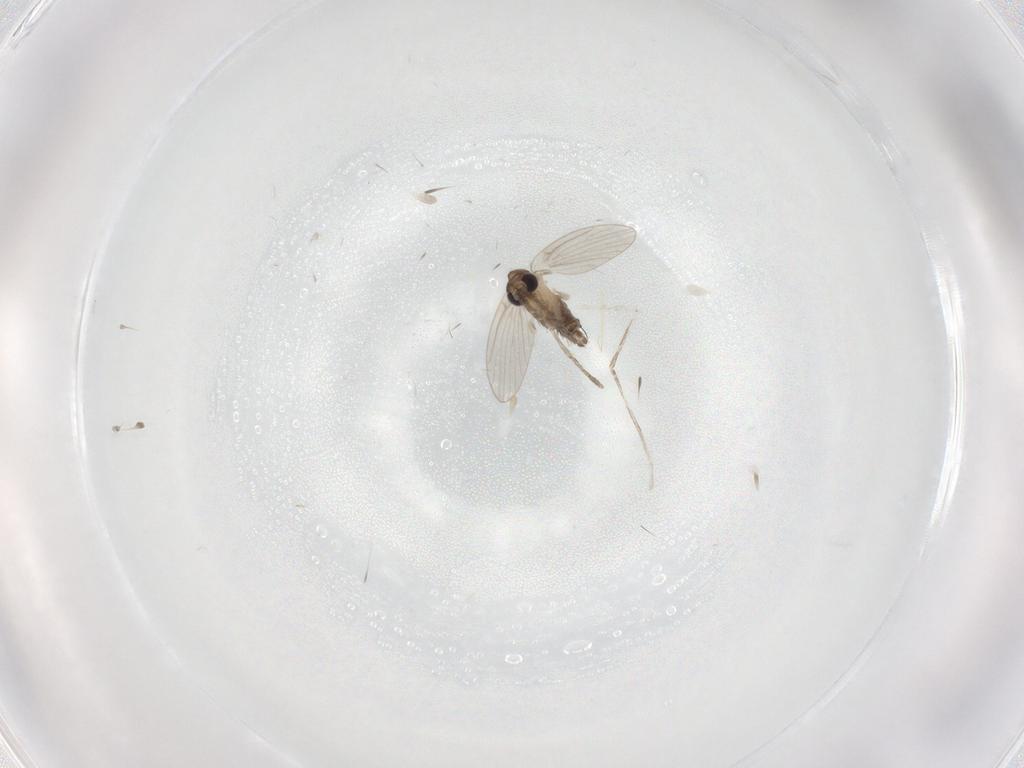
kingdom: Animalia
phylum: Arthropoda
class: Insecta
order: Diptera
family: Cecidomyiidae
